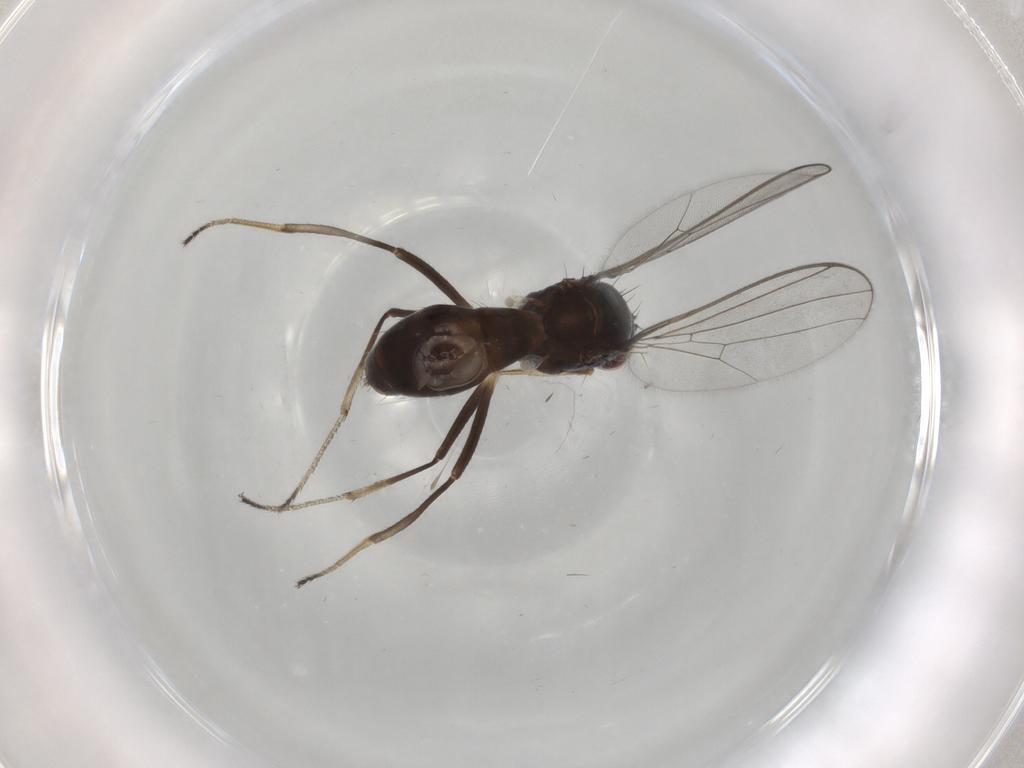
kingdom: Animalia
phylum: Arthropoda
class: Insecta
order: Diptera
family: Sepsidae
